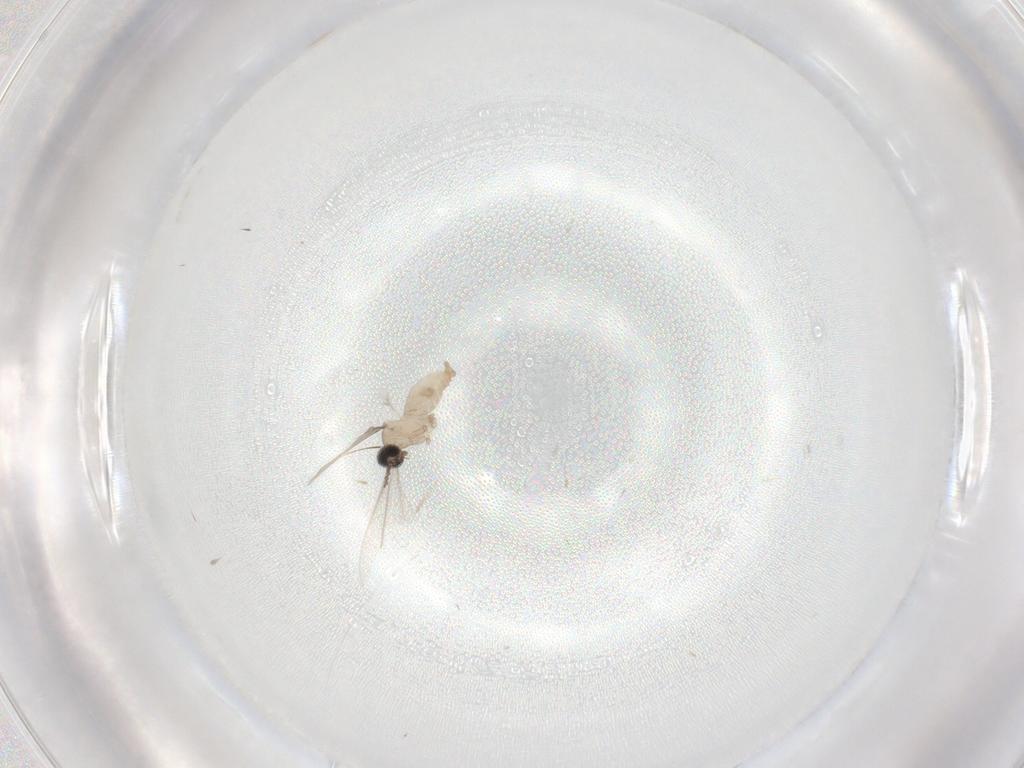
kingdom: Animalia
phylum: Arthropoda
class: Insecta
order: Diptera
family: Cecidomyiidae
